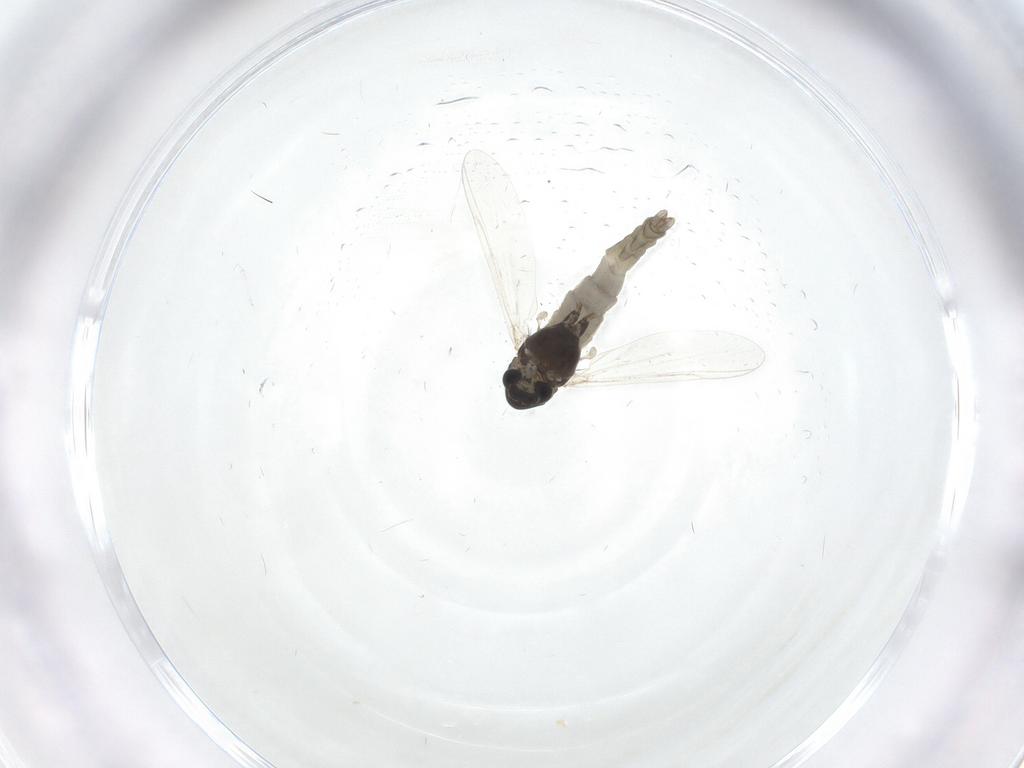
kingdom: Animalia
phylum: Arthropoda
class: Insecta
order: Diptera
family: Chironomidae
